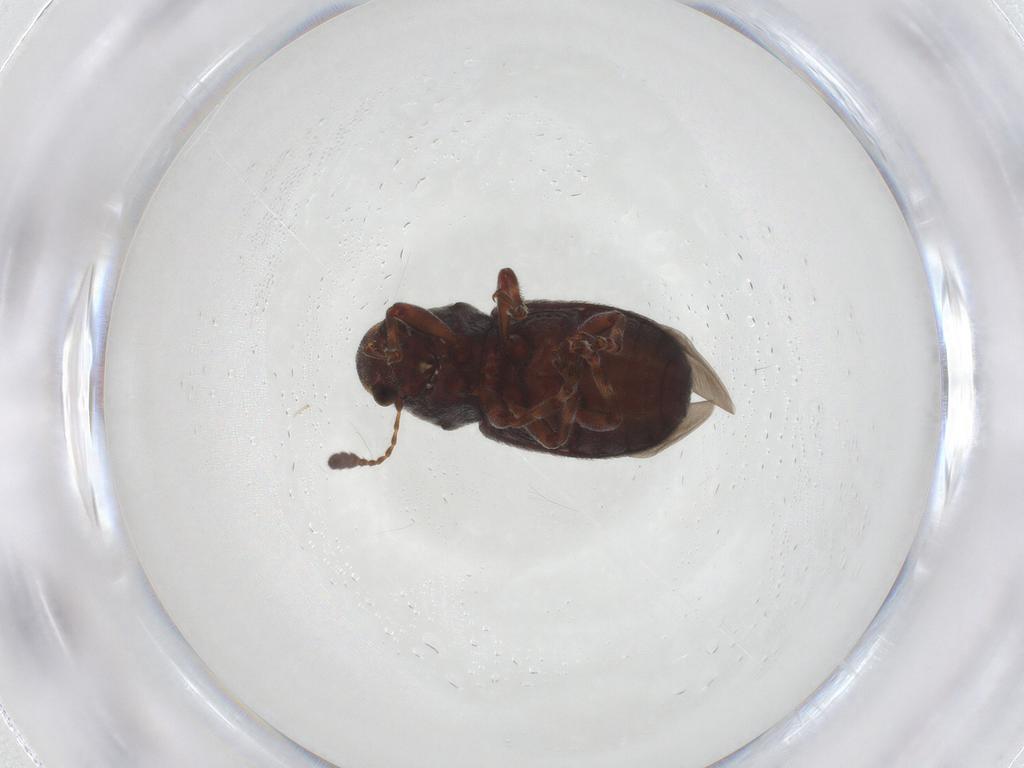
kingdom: Animalia
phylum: Arthropoda
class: Insecta
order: Coleoptera
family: Anthribidae
